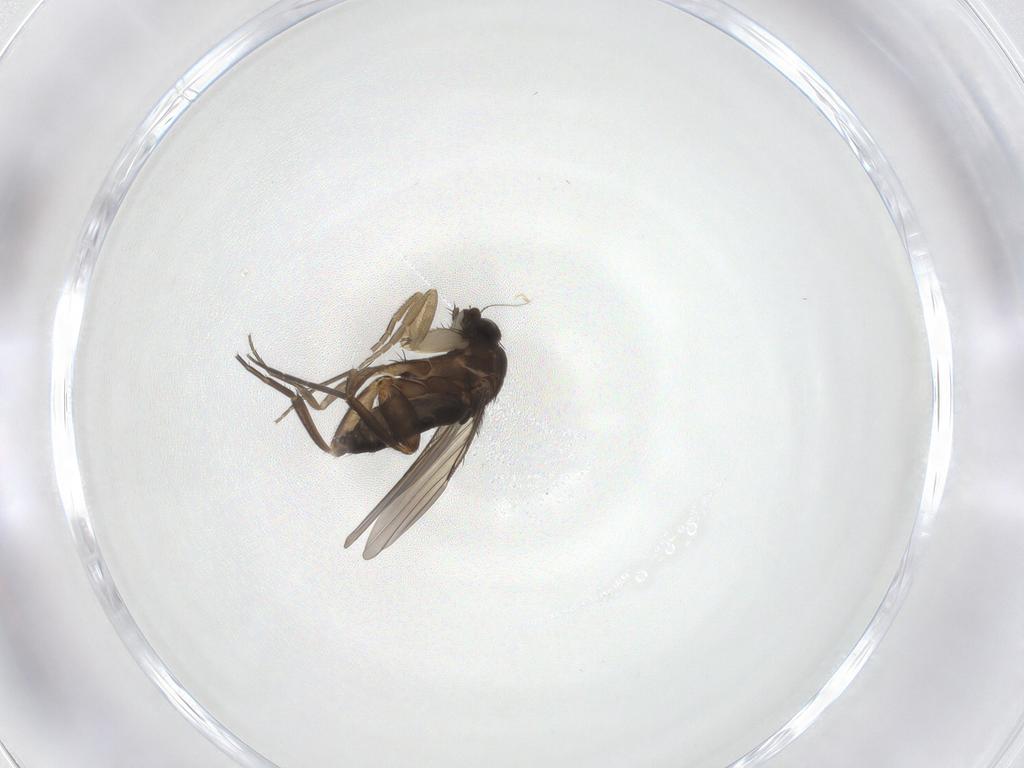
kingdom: Animalia
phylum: Arthropoda
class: Insecta
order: Diptera
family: Phoridae
